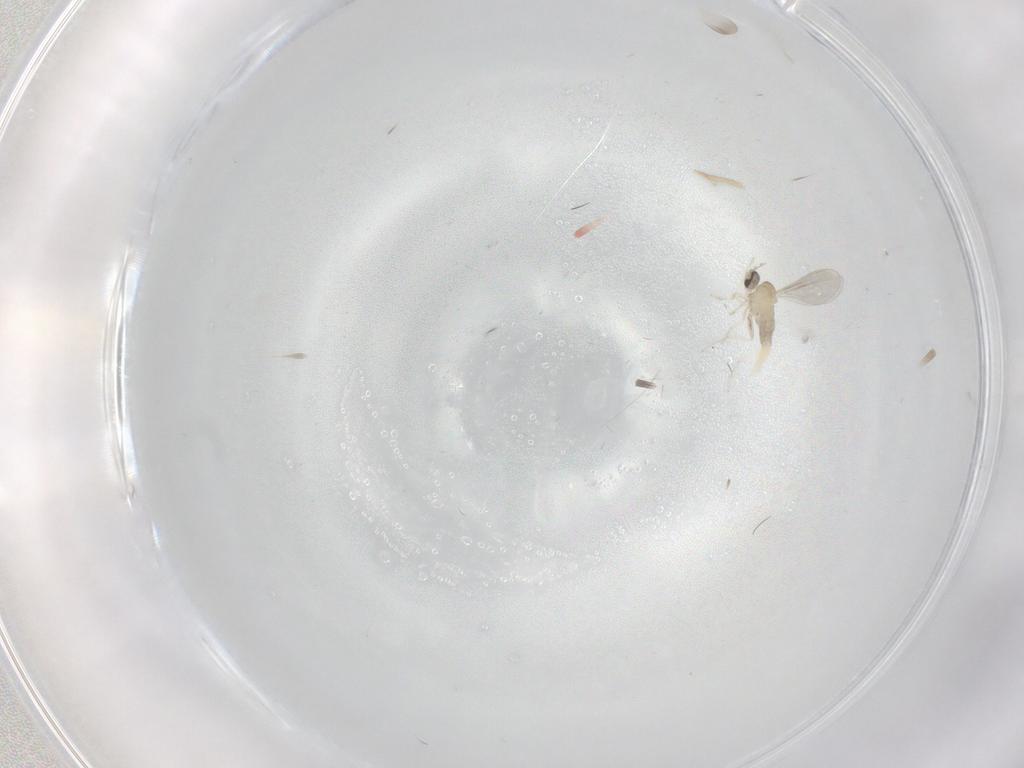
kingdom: Animalia
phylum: Arthropoda
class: Insecta
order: Diptera
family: Cecidomyiidae
